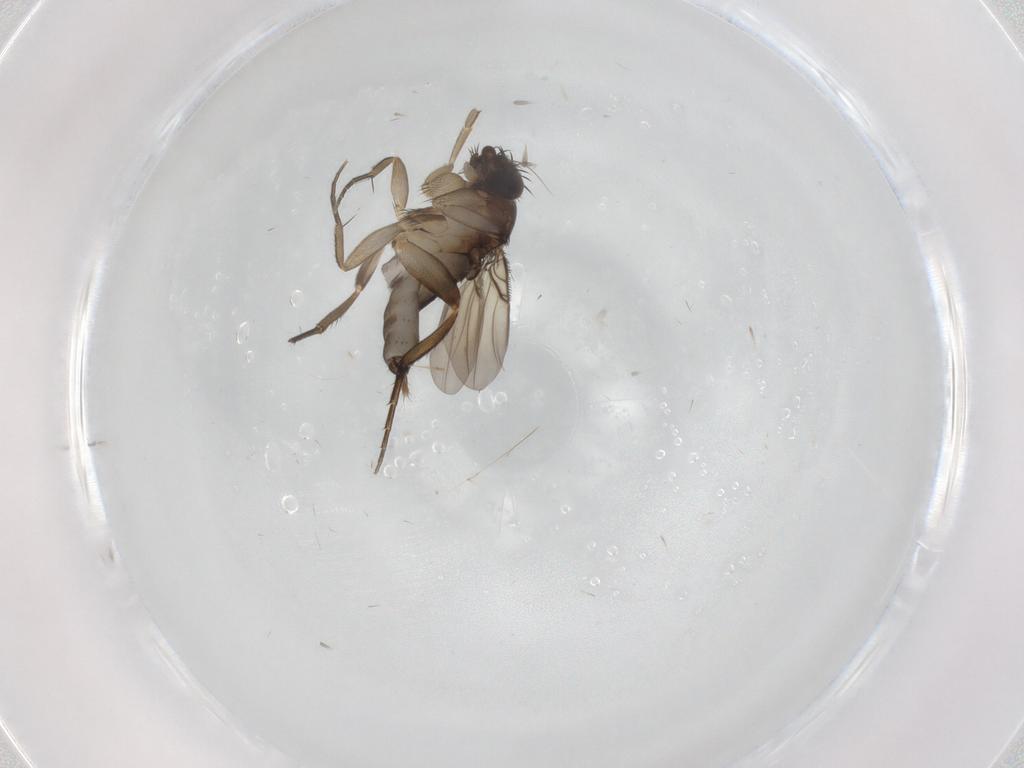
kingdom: Animalia
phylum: Arthropoda
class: Insecta
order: Diptera
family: Phoridae
